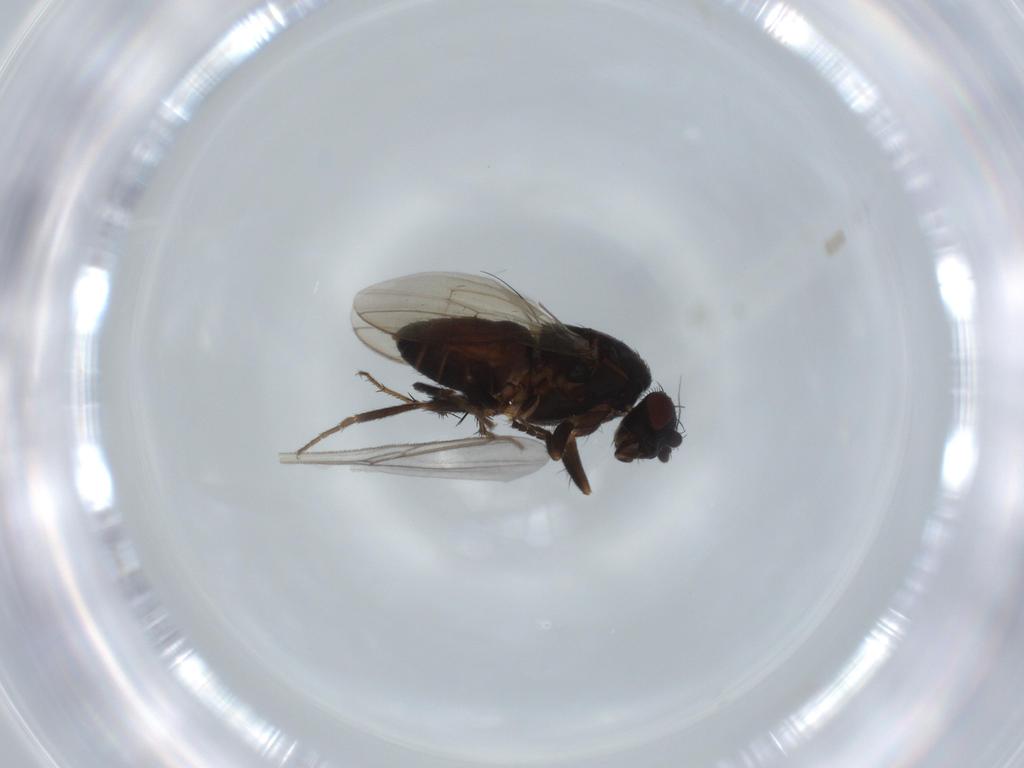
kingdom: Animalia
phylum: Arthropoda
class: Insecta
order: Diptera
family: Sphaeroceridae
